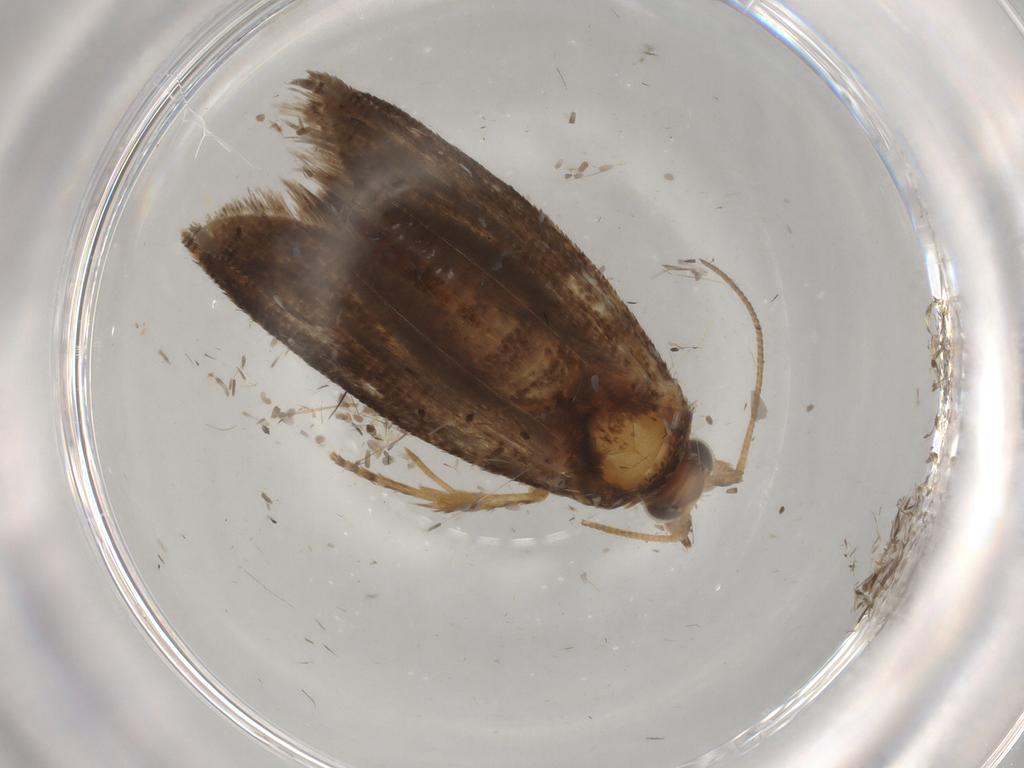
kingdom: Animalia
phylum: Arthropoda
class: Insecta
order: Lepidoptera
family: Tortricidae
